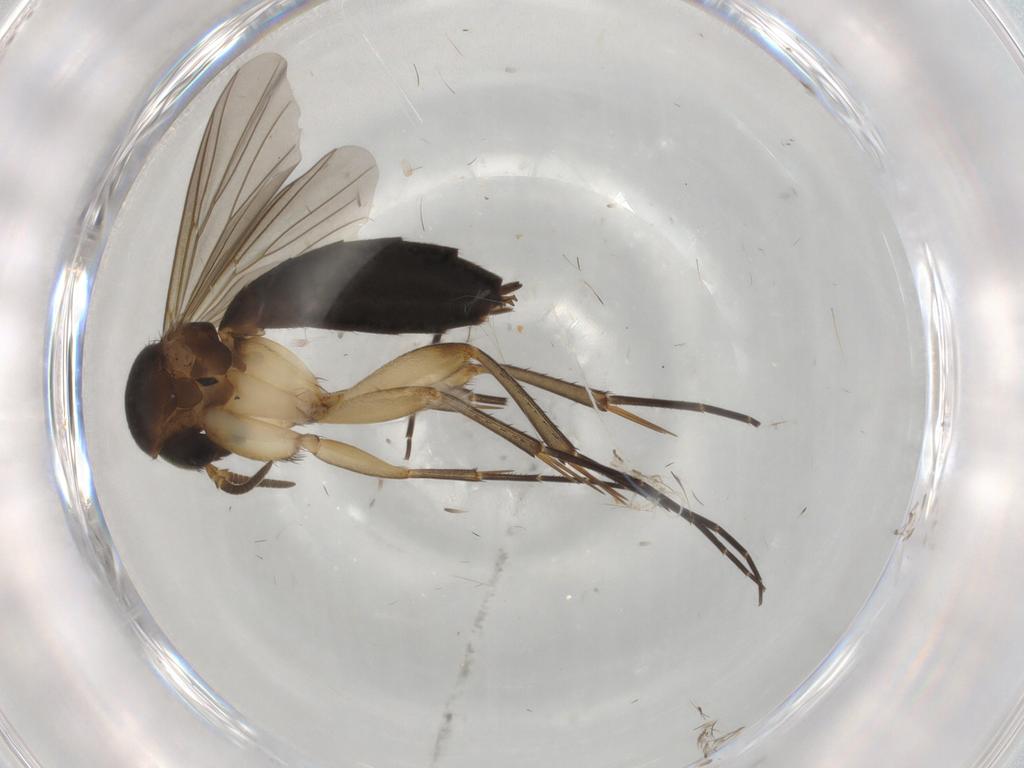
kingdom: Animalia
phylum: Arthropoda
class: Insecta
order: Diptera
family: Mycetophilidae
